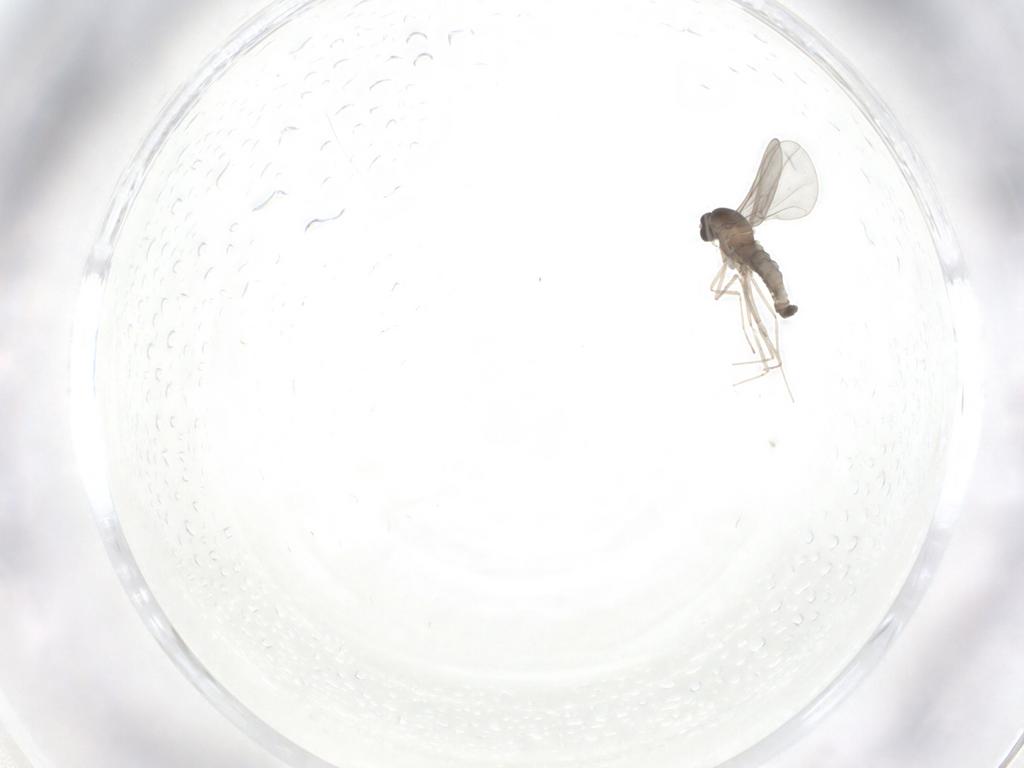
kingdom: Animalia
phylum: Arthropoda
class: Insecta
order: Diptera
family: Cecidomyiidae
